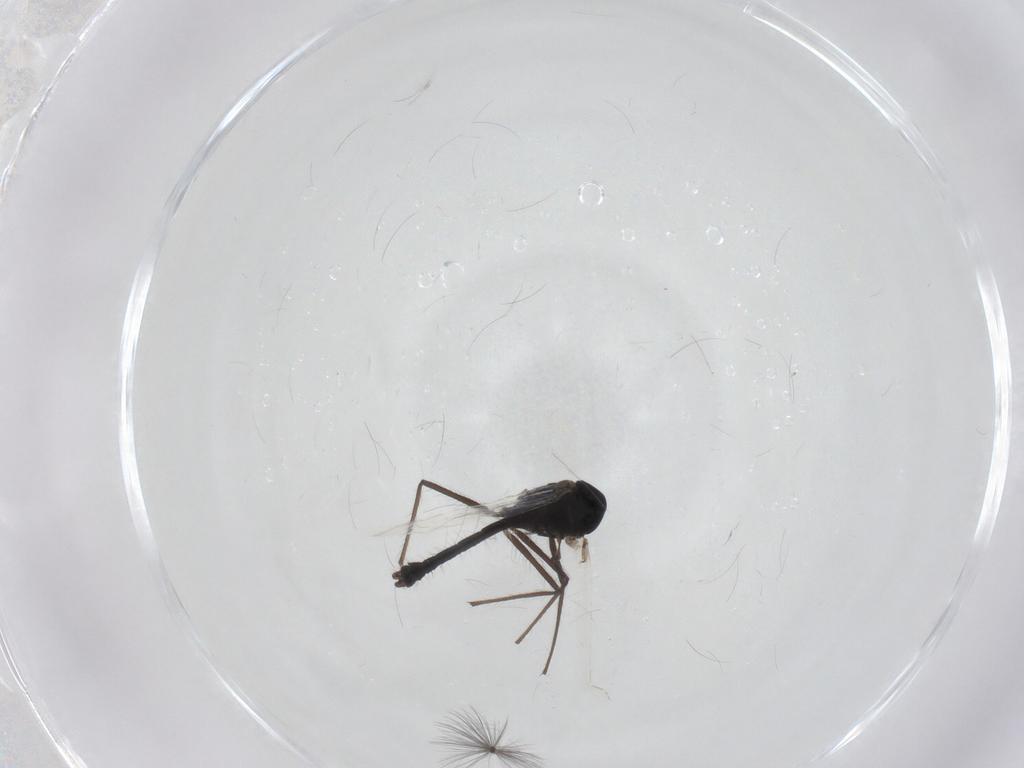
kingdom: Animalia
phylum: Arthropoda
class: Insecta
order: Diptera
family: Chironomidae
